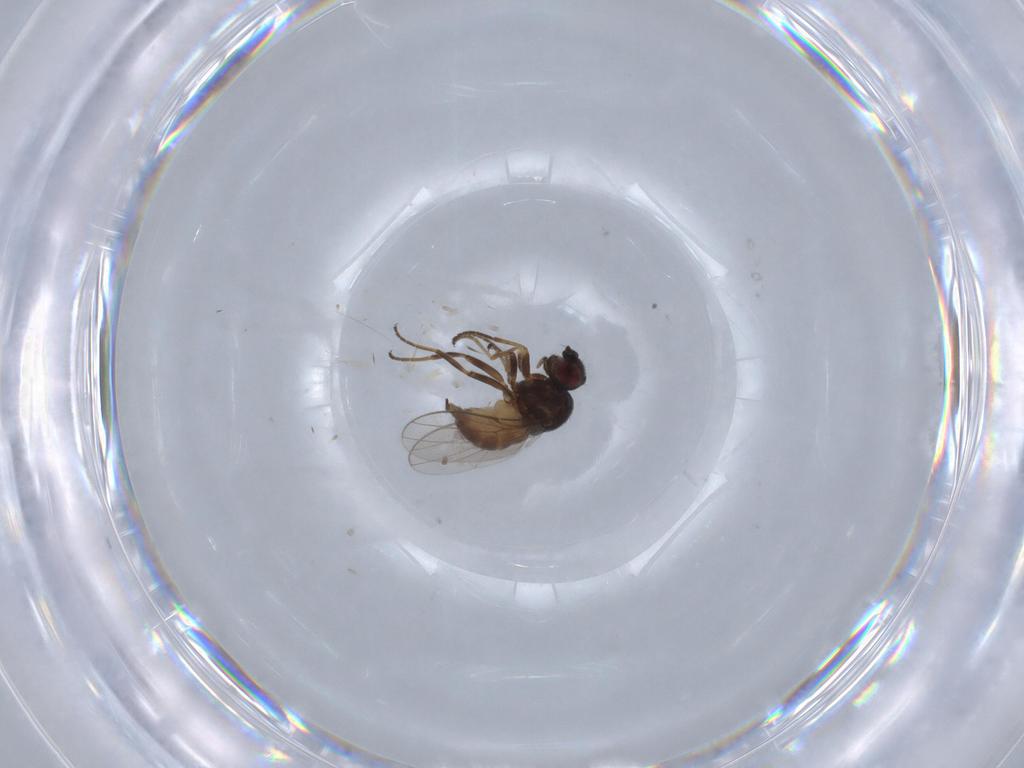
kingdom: Animalia
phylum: Arthropoda
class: Insecta
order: Diptera
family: Chloropidae
